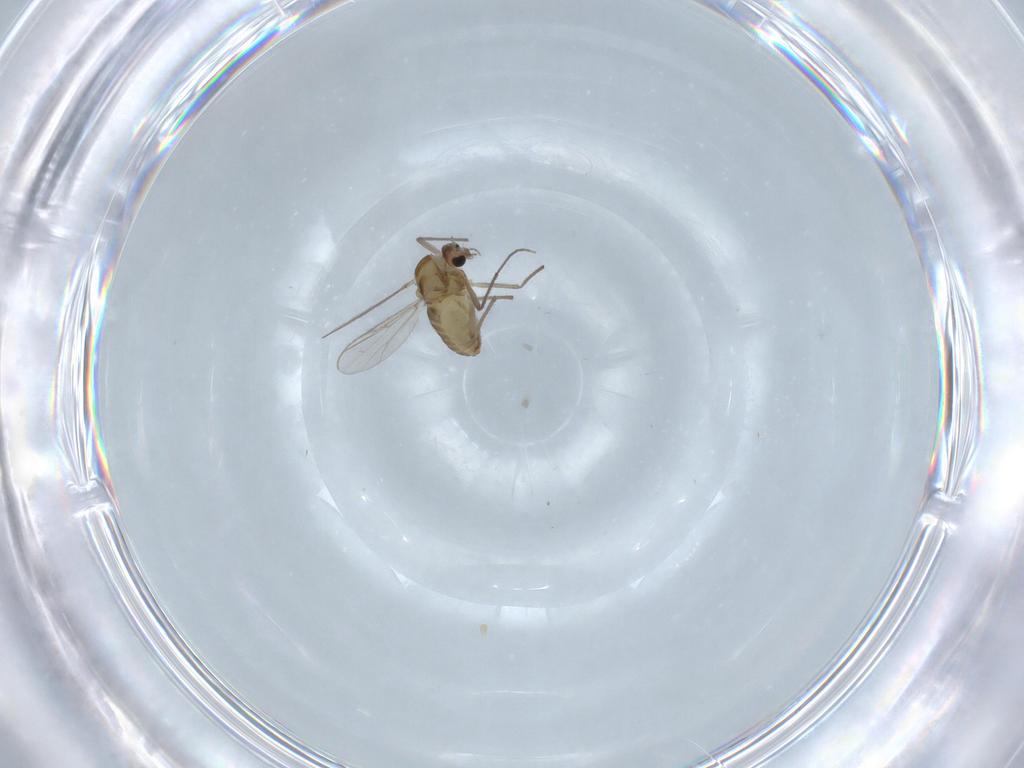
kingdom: Animalia
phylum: Arthropoda
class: Insecta
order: Diptera
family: Chironomidae
